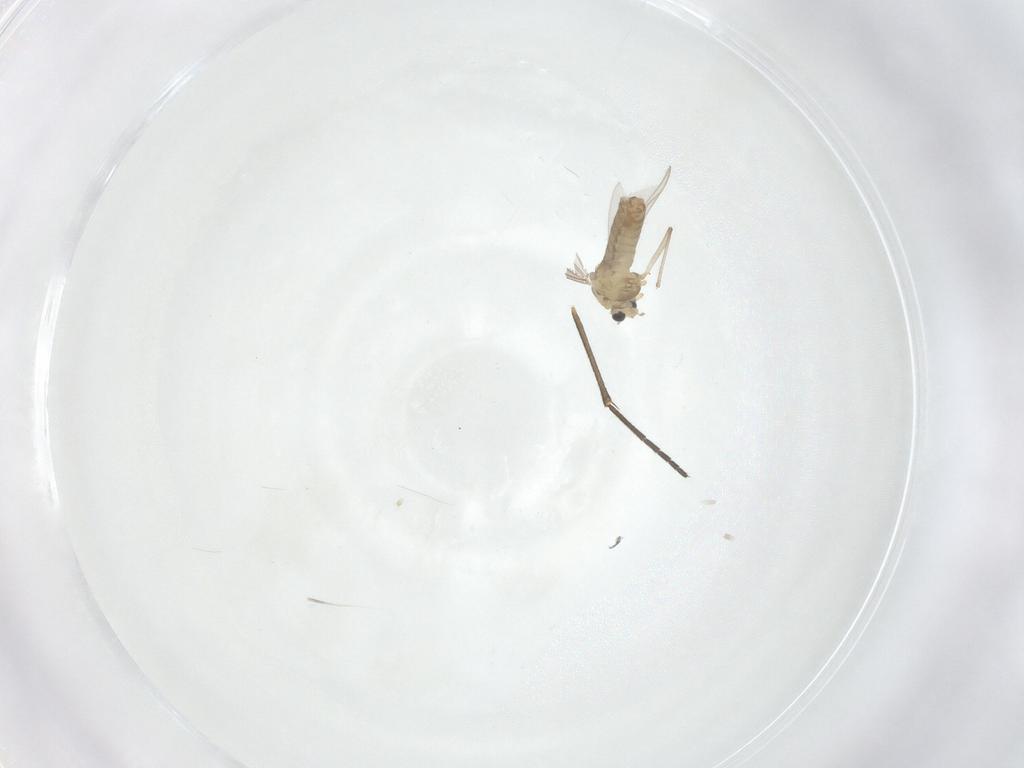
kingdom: Animalia
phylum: Arthropoda
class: Insecta
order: Diptera
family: Chironomidae
